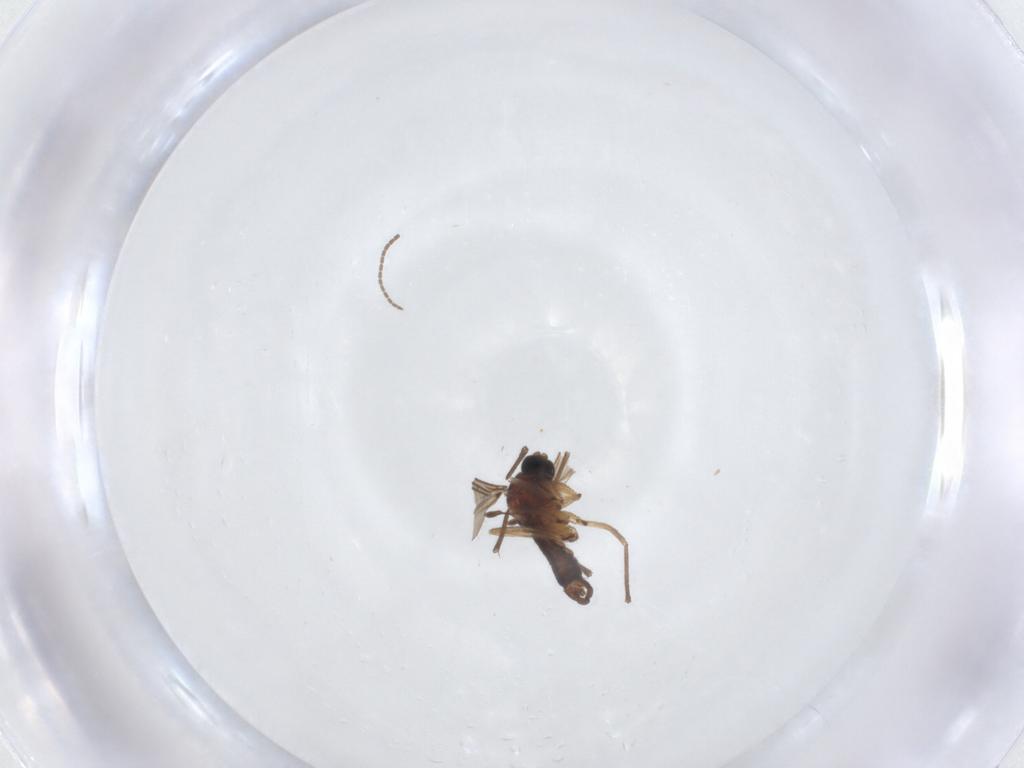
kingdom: Animalia
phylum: Arthropoda
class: Insecta
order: Diptera
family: Sciaridae
